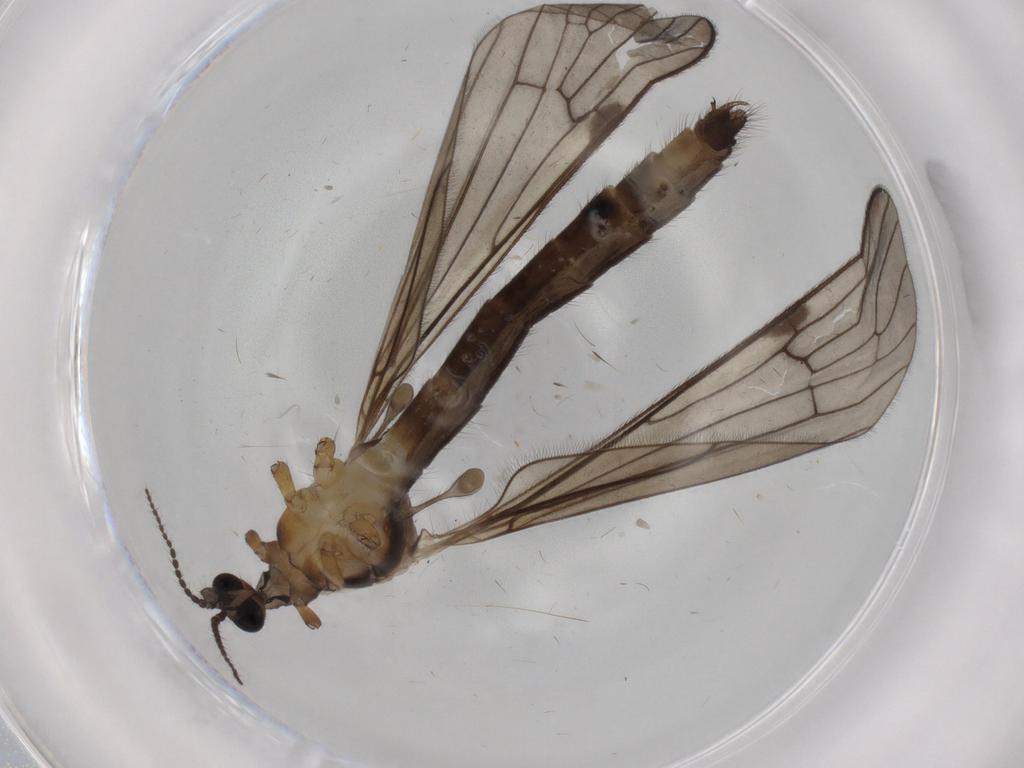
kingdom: Animalia
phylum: Arthropoda
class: Insecta
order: Diptera
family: Limoniidae
